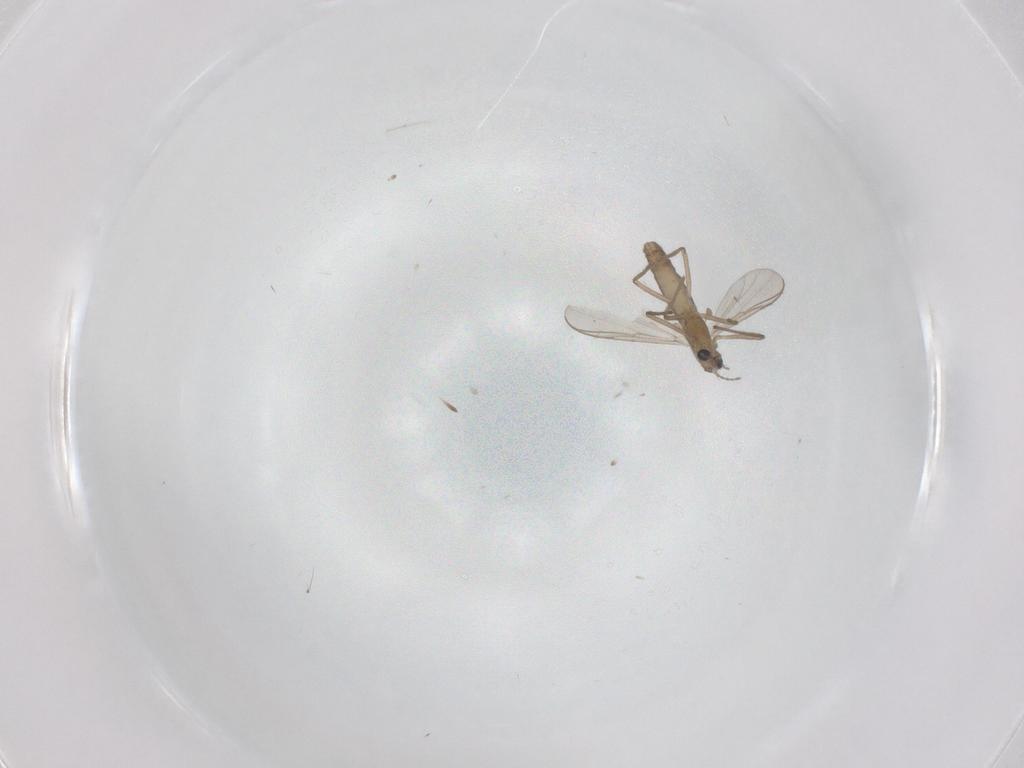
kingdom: Animalia
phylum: Arthropoda
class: Insecta
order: Diptera
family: Chironomidae
